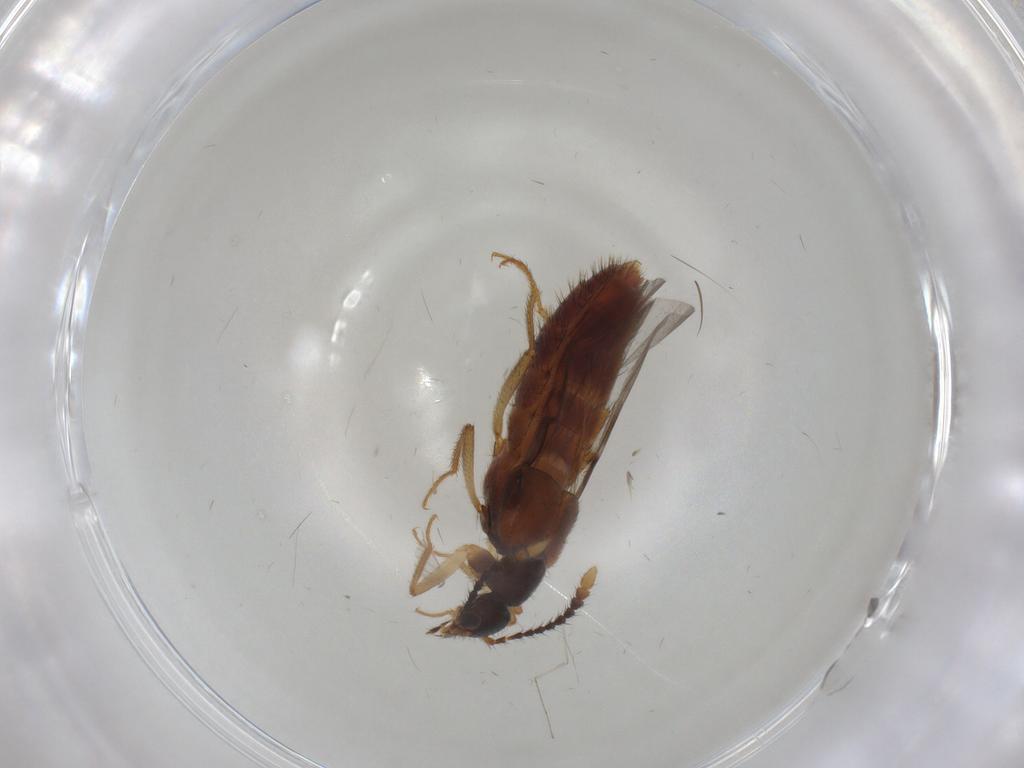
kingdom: Animalia
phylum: Arthropoda
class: Insecta
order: Coleoptera
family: Staphylinidae
